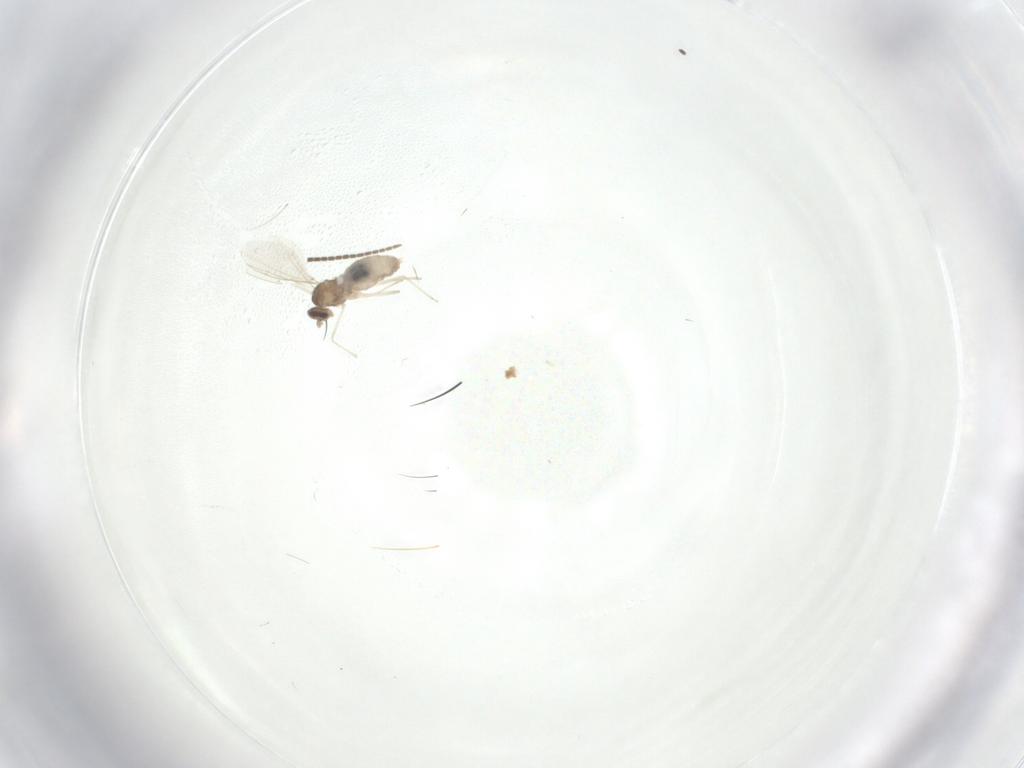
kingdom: Animalia
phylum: Arthropoda
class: Insecta
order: Diptera
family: Cecidomyiidae
